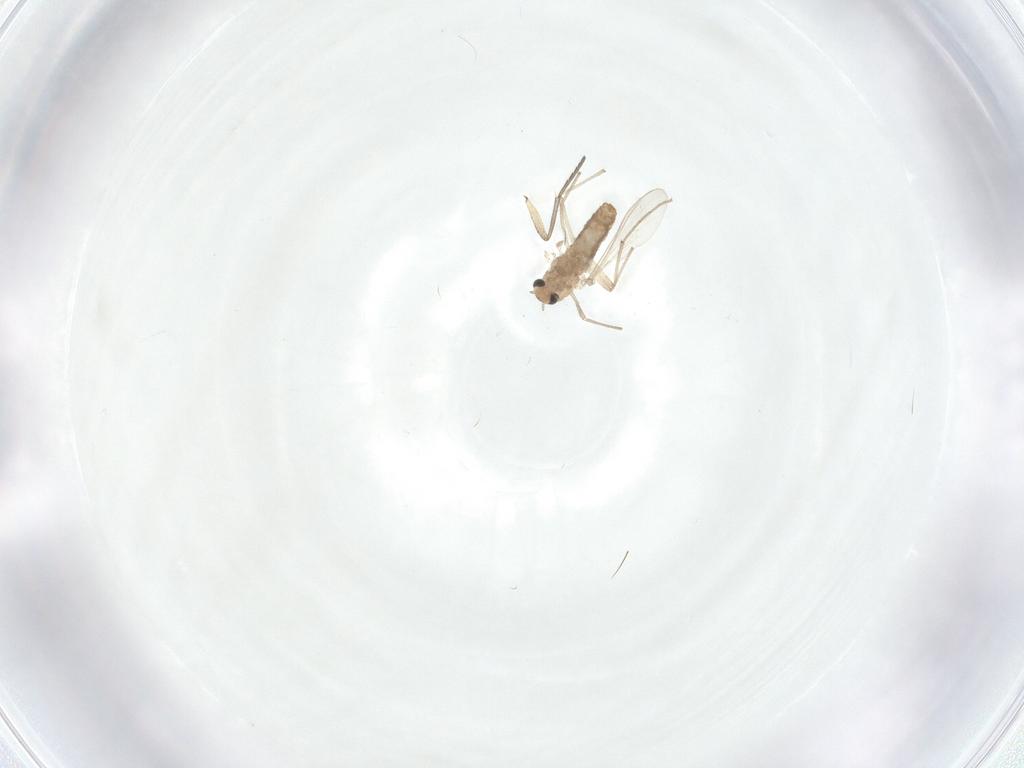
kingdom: Animalia
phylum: Arthropoda
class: Insecta
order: Diptera
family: Chironomidae
